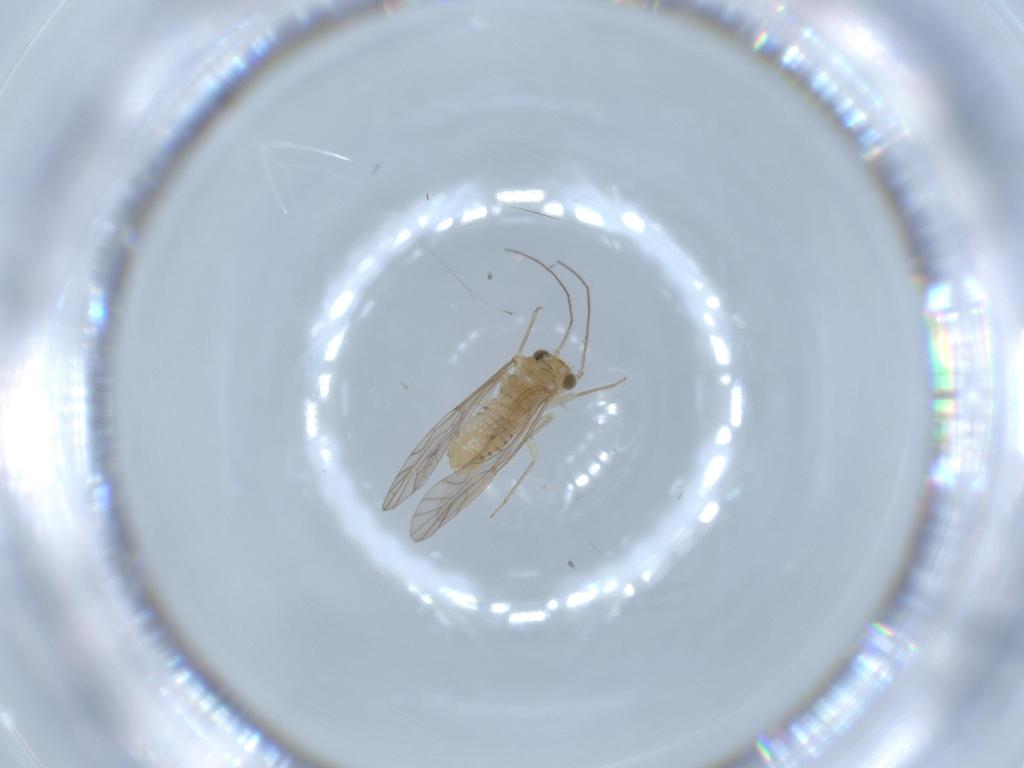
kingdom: Animalia
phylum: Arthropoda
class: Insecta
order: Psocodea
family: Lachesillidae
